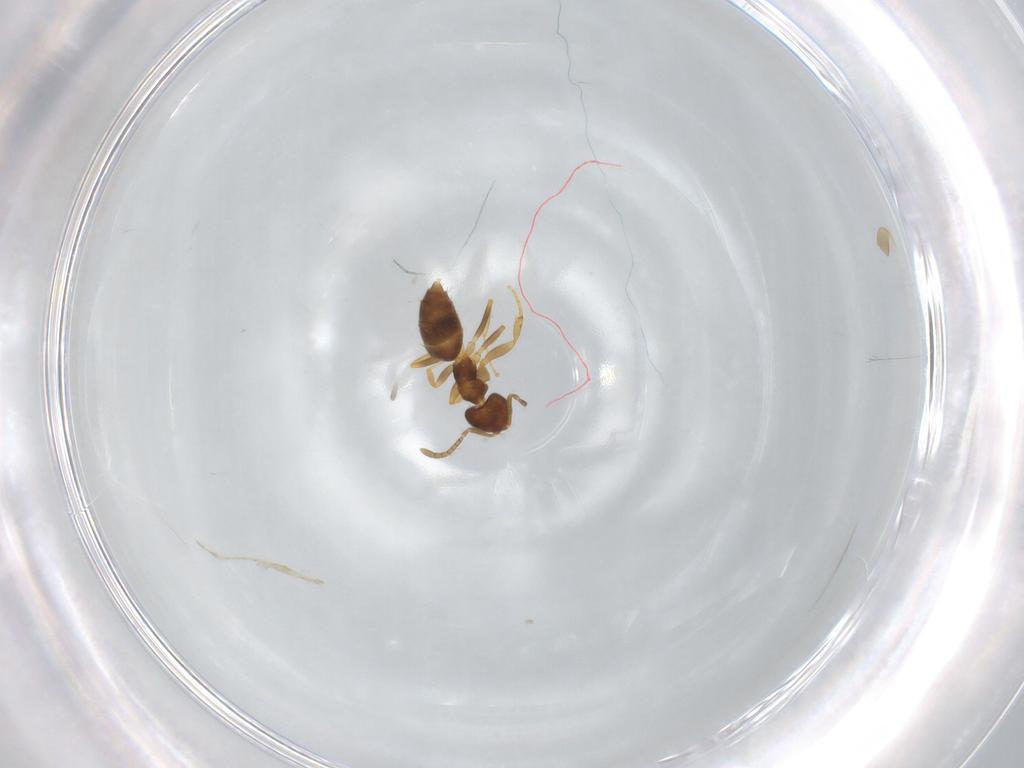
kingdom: Animalia
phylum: Arthropoda
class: Insecta
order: Hymenoptera
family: Formicidae
